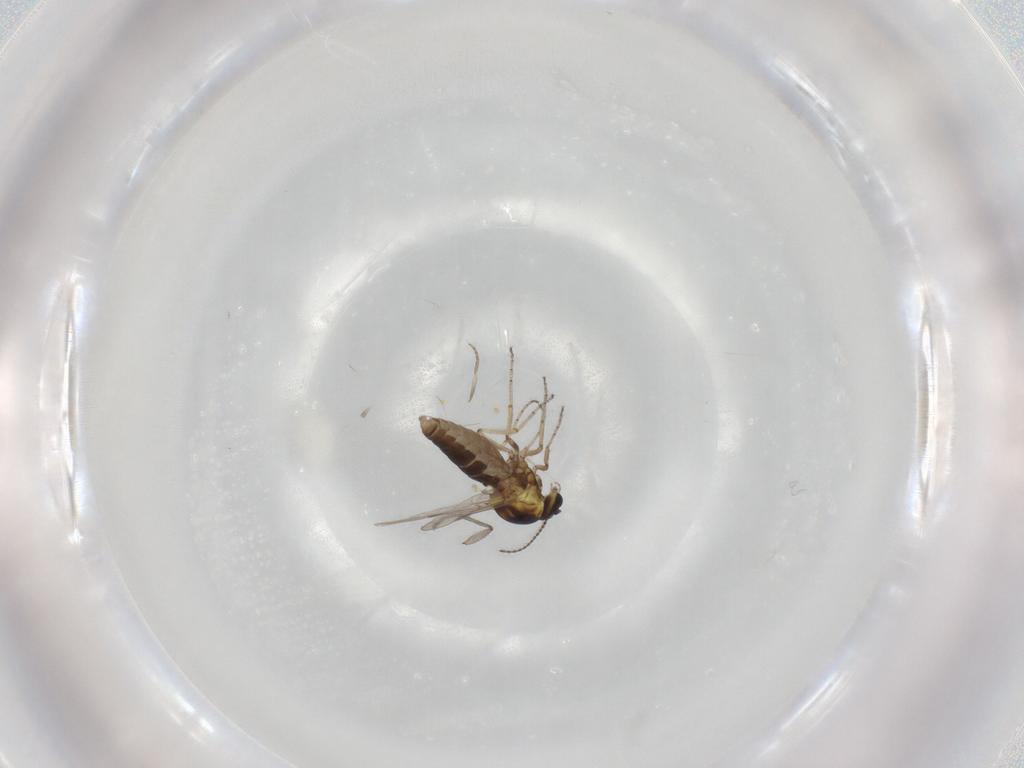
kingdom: Animalia
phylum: Arthropoda
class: Insecta
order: Diptera
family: Ceratopogonidae
